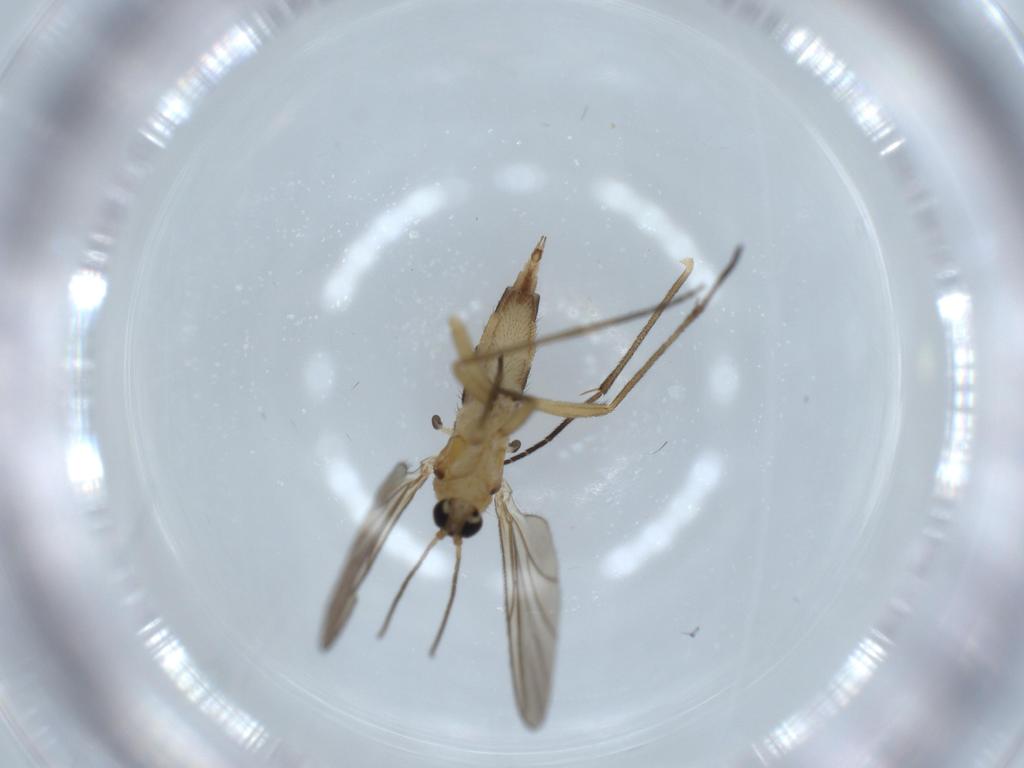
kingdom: Animalia
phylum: Arthropoda
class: Insecta
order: Diptera
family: Sciaridae
